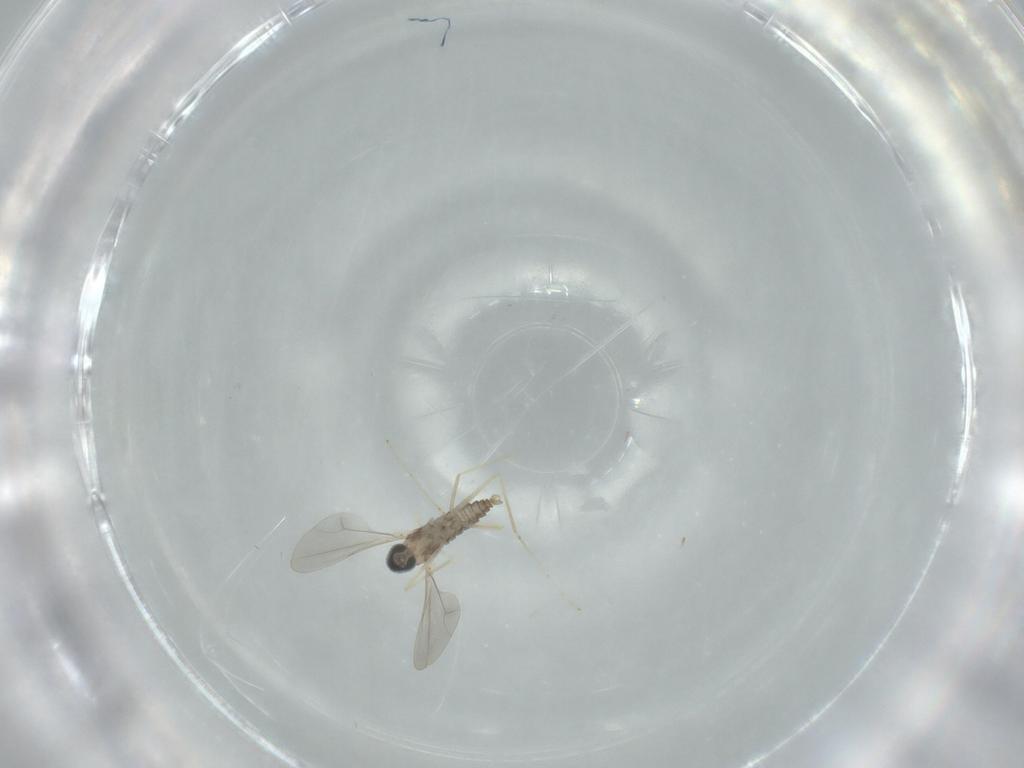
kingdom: Animalia
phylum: Arthropoda
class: Insecta
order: Diptera
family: Cecidomyiidae
